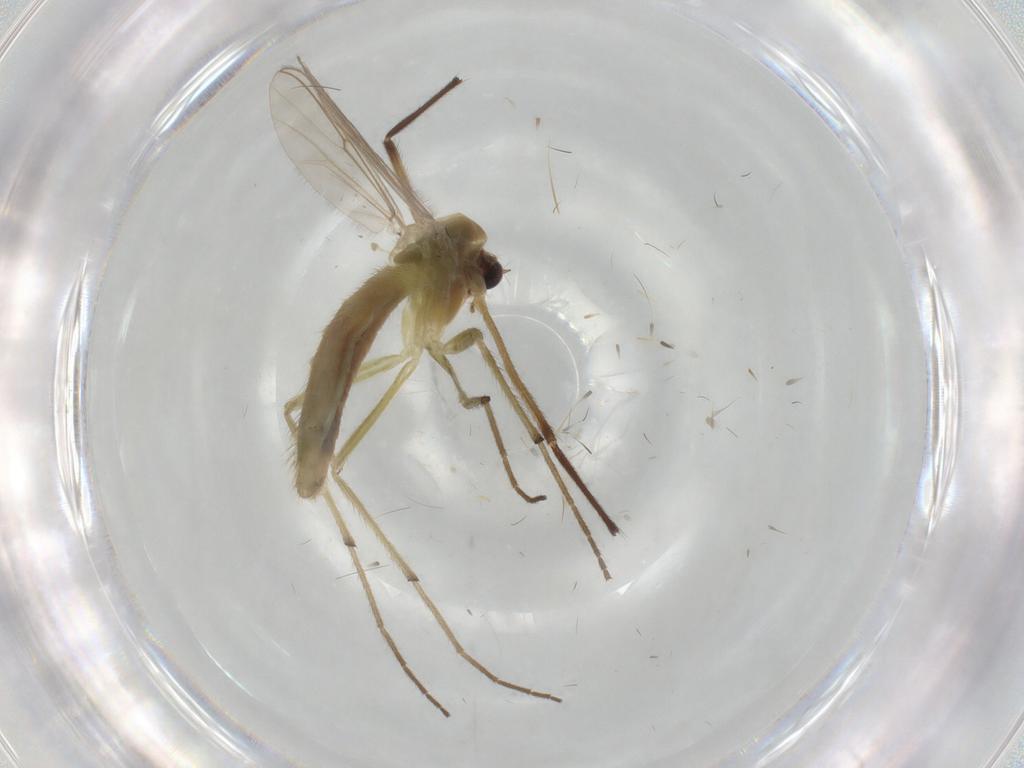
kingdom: Animalia
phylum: Arthropoda
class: Insecta
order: Diptera
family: Chironomidae
